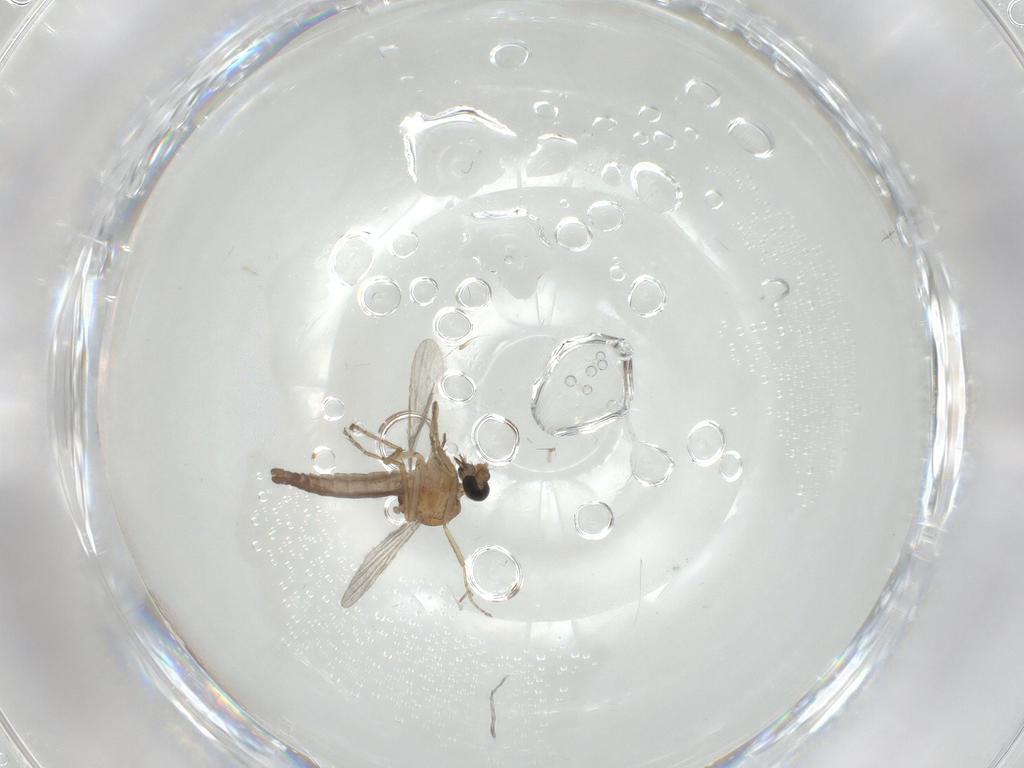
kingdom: Animalia
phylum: Arthropoda
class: Insecta
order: Diptera
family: Ceratopogonidae
